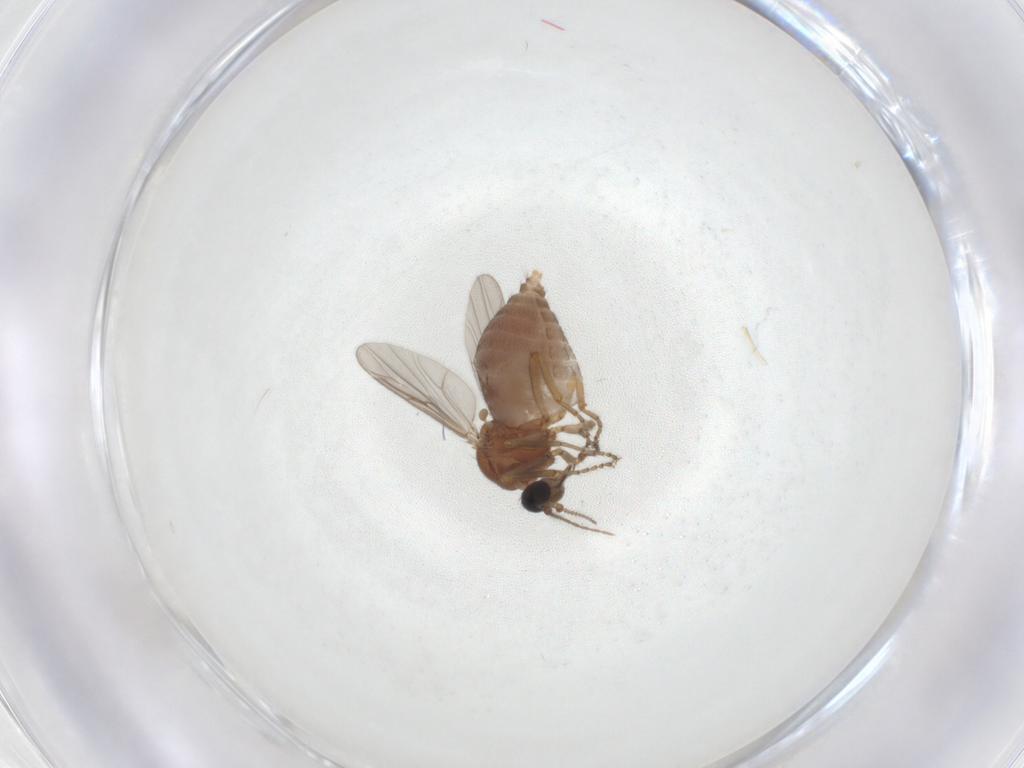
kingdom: Animalia
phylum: Arthropoda
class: Insecta
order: Diptera
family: Ceratopogonidae
